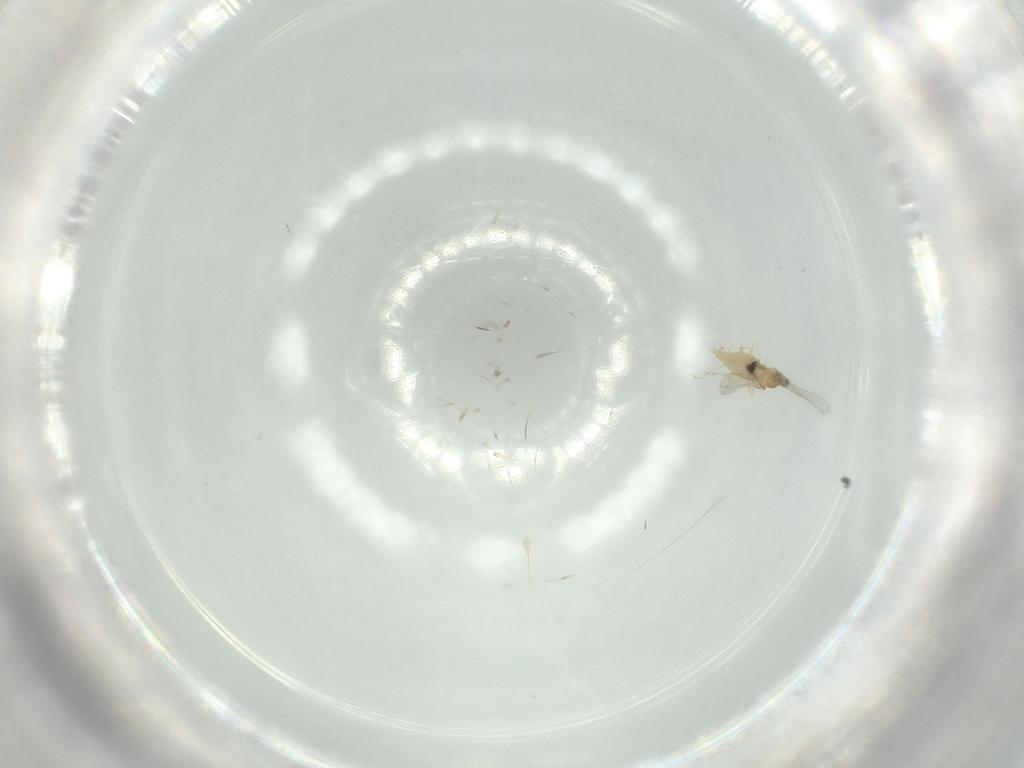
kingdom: Animalia
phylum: Arthropoda
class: Insecta
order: Diptera
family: Cecidomyiidae
